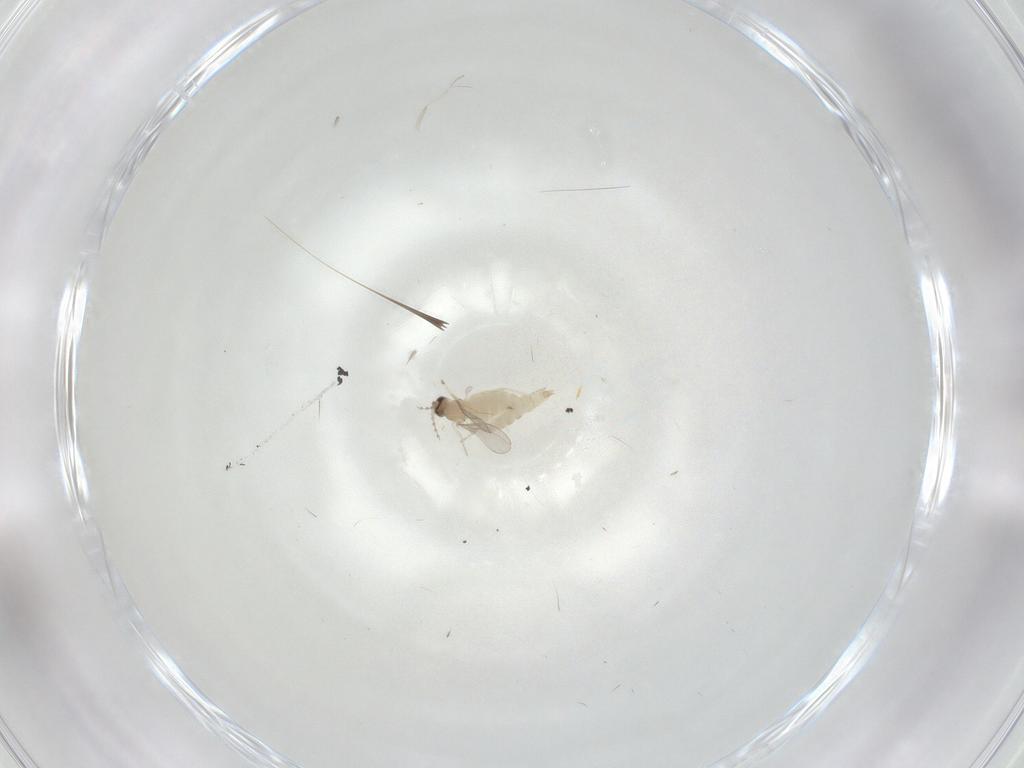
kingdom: Animalia
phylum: Arthropoda
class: Insecta
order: Diptera
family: Cecidomyiidae
